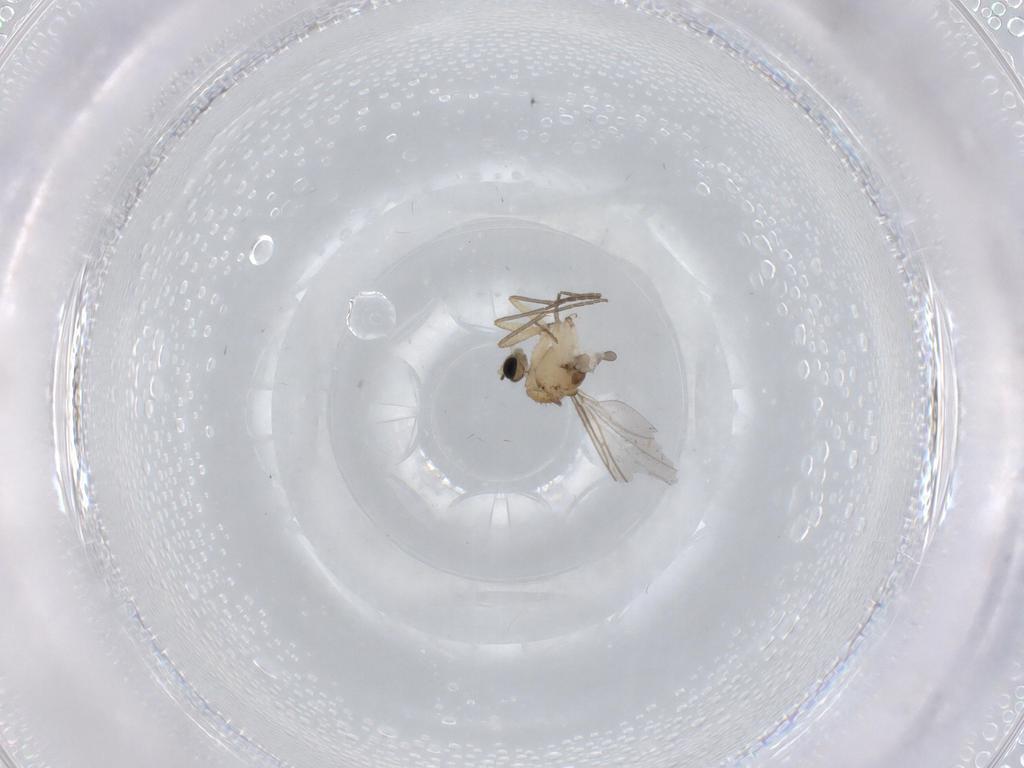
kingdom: Animalia
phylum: Arthropoda
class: Insecta
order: Diptera
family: Sciaridae
